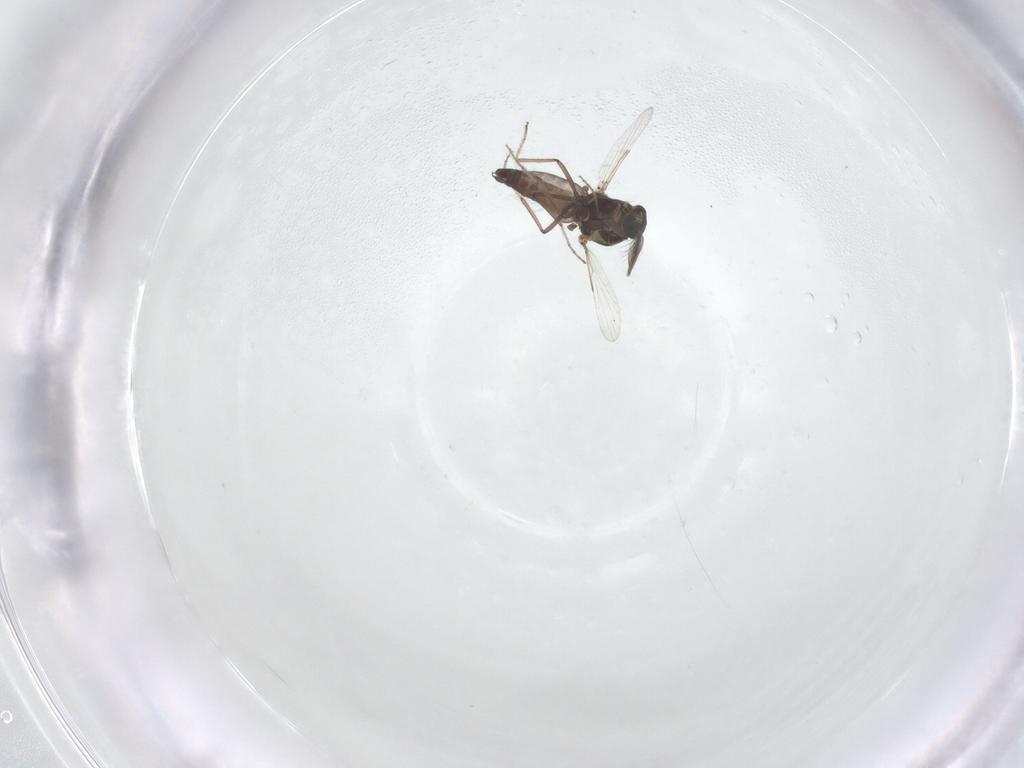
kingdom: Animalia
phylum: Arthropoda
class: Insecta
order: Diptera
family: Ceratopogonidae
